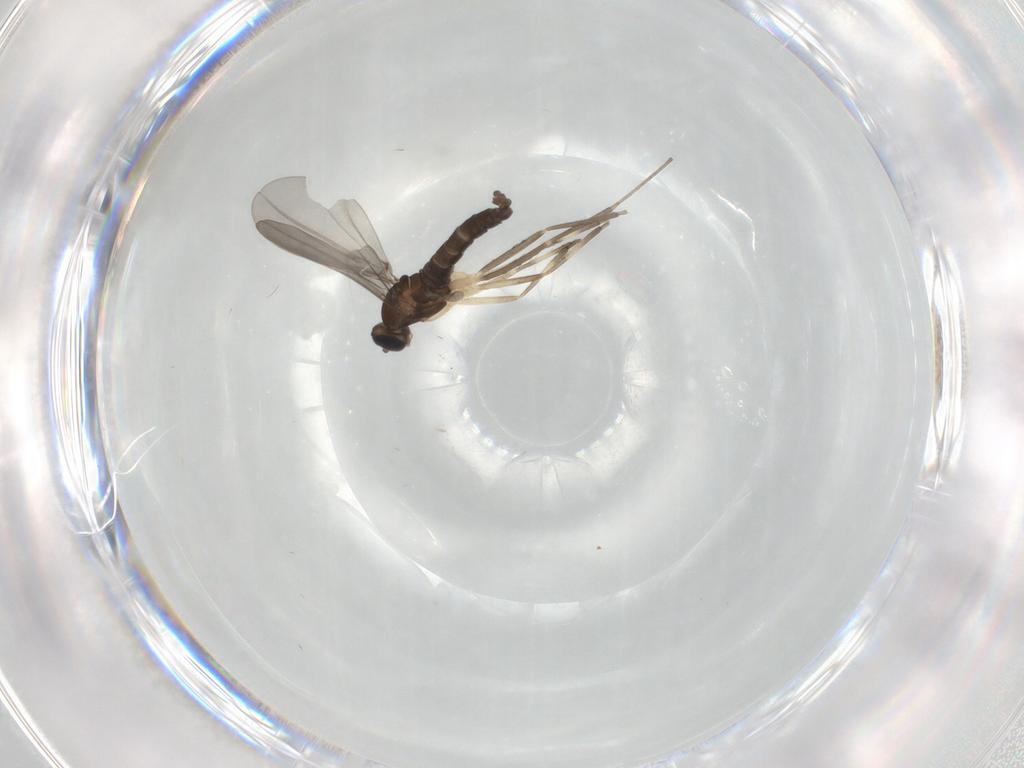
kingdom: Animalia
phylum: Arthropoda
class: Insecta
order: Diptera
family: Cecidomyiidae
